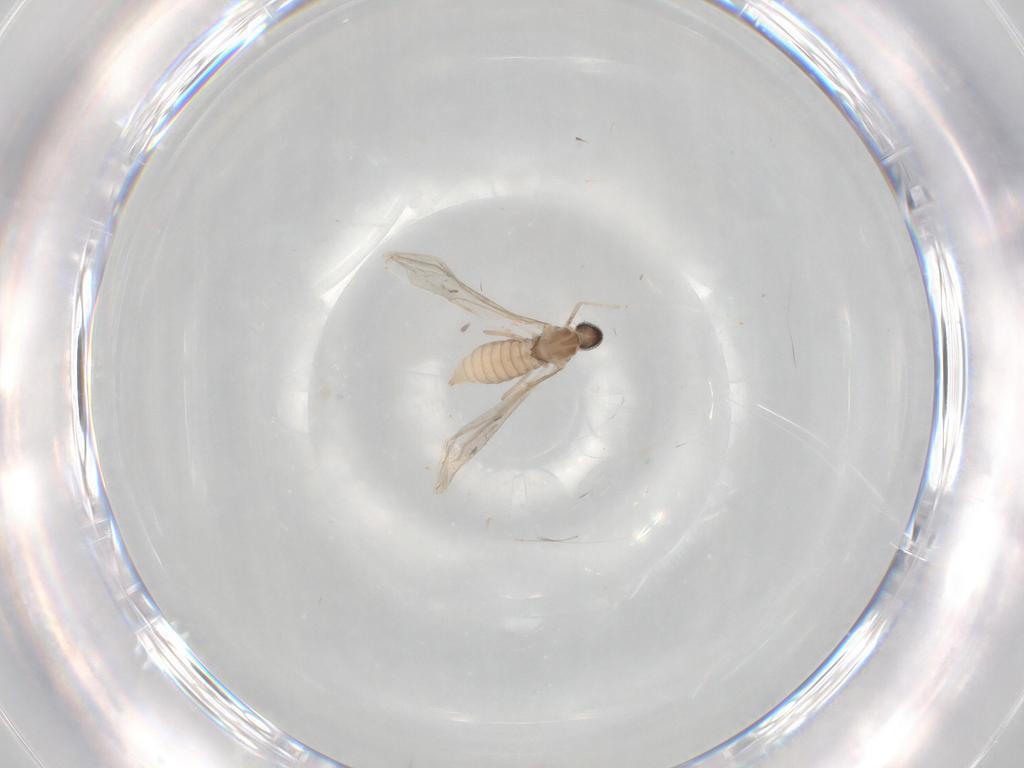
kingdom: Animalia
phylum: Arthropoda
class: Insecta
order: Diptera
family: Cecidomyiidae
